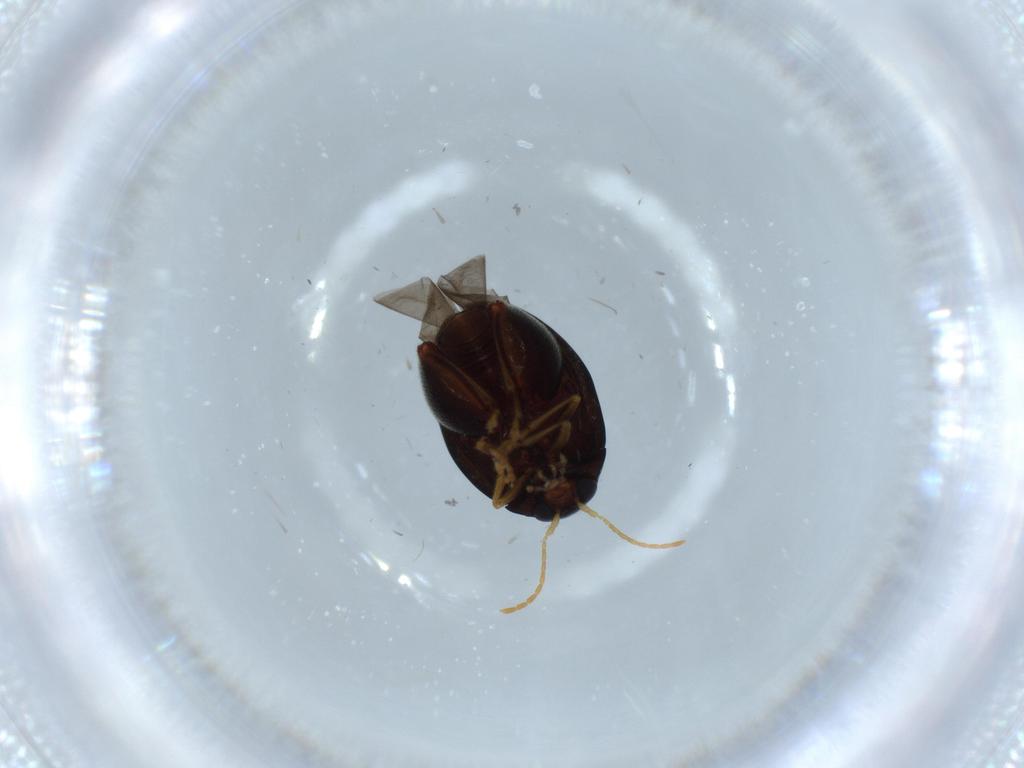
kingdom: Animalia
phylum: Arthropoda
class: Insecta
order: Coleoptera
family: Chrysomelidae
